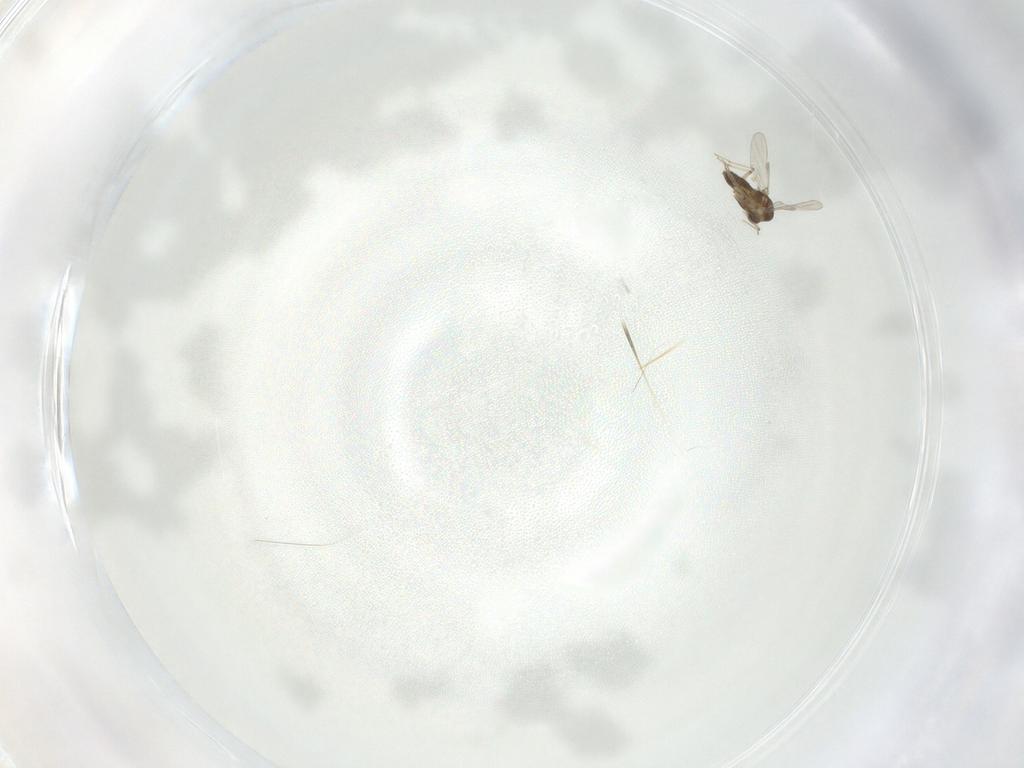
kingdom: Animalia
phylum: Arthropoda
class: Insecta
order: Diptera
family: Chironomidae
